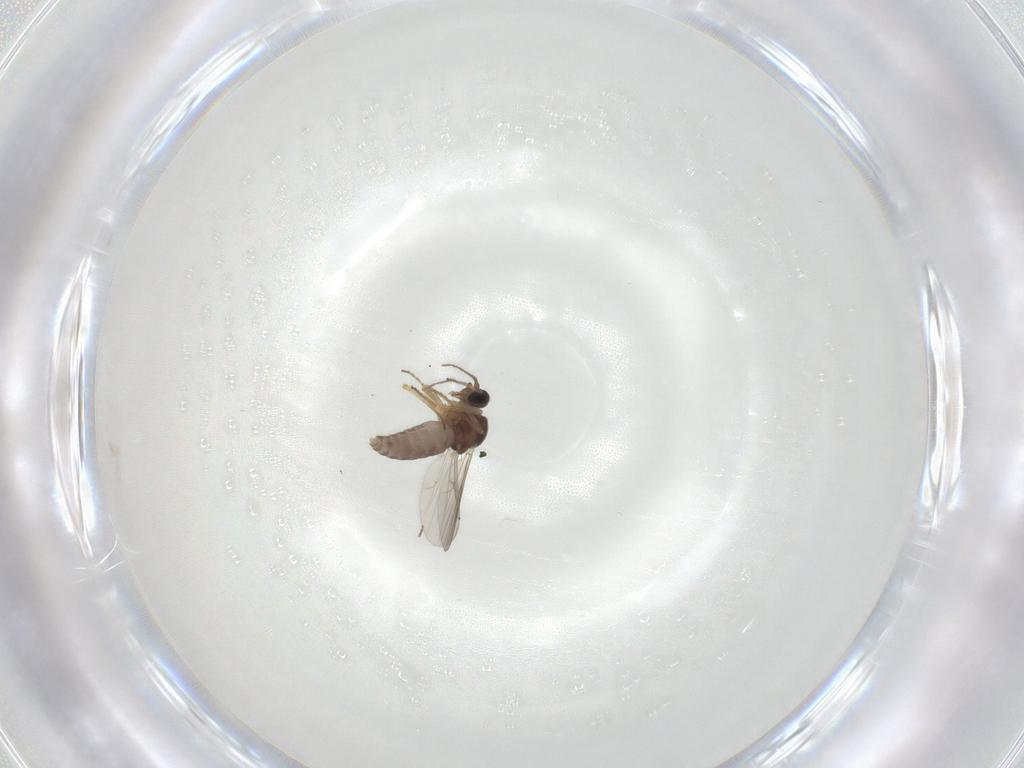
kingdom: Animalia
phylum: Arthropoda
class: Insecta
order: Diptera
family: Ceratopogonidae
